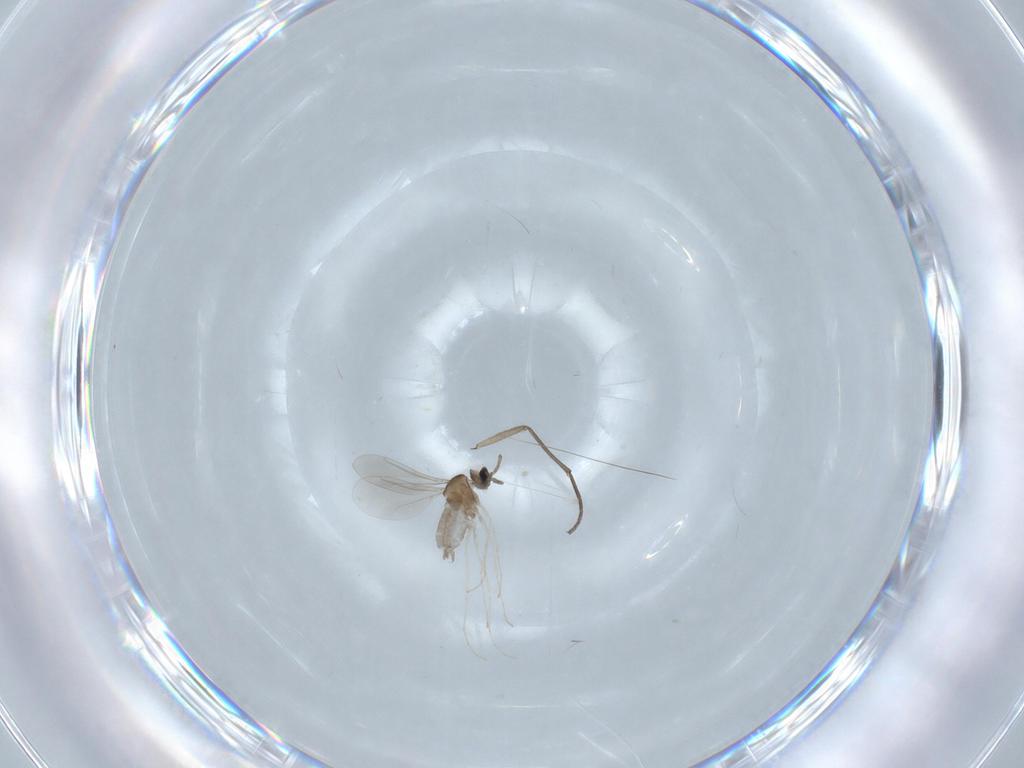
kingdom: Animalia
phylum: Arthropoda
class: Insecta
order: Diptera
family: Cecidomyiidae
